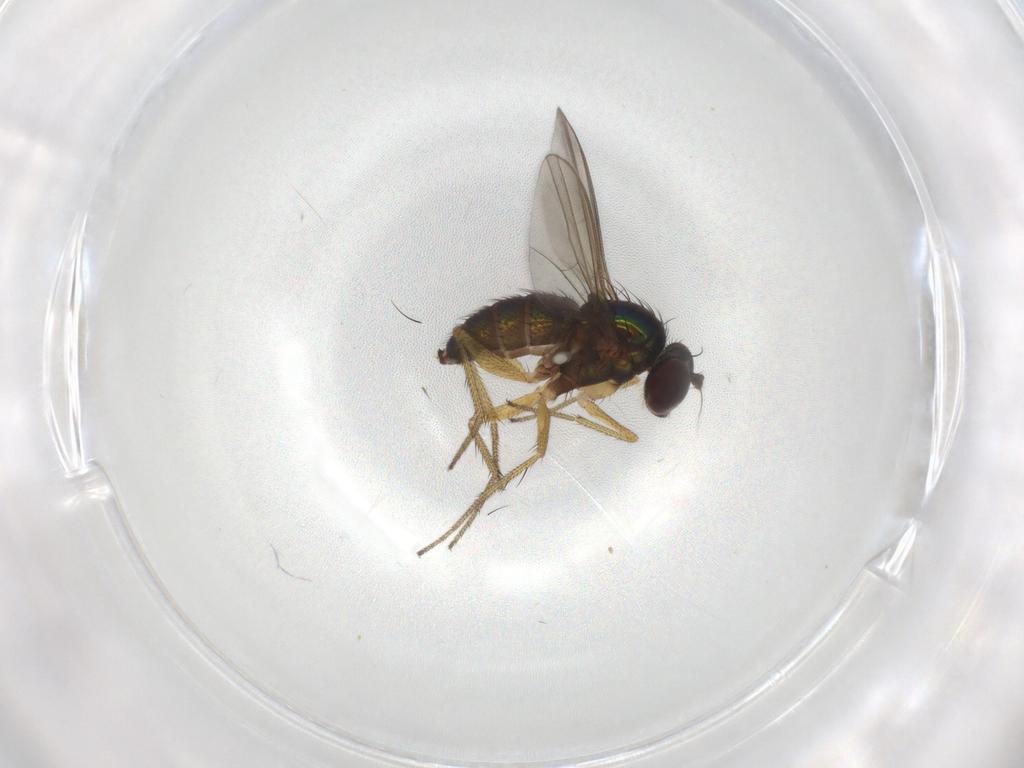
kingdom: Animalia
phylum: Arthropoda
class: Insecta
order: Diptera
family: Dolichopodidae
